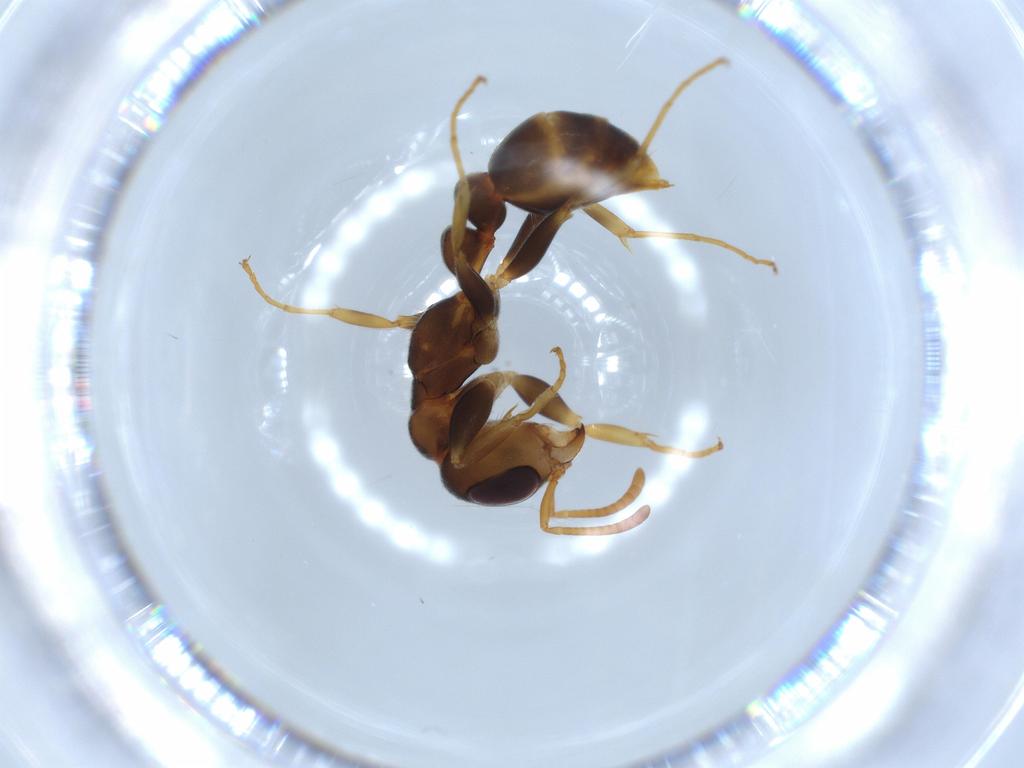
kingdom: Animalia
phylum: Arthropoda
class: Insecta
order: Hymenoptera
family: Formicidae
